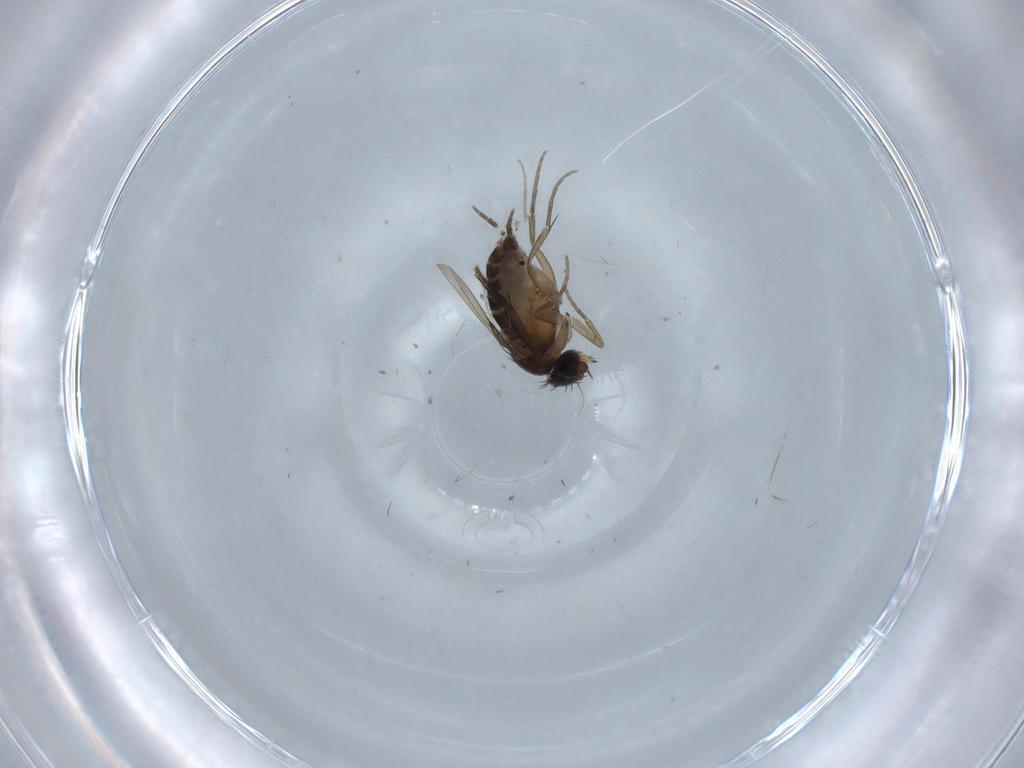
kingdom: Animalia
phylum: Arthropoda
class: Insecta
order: Diptera
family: Phoridae
